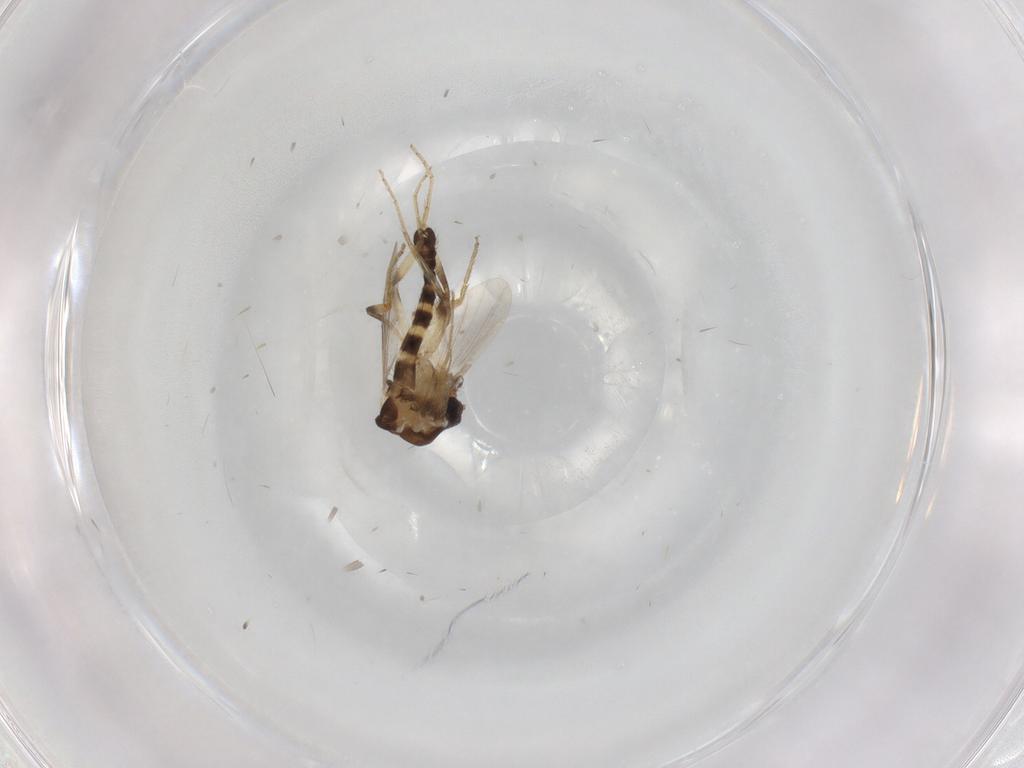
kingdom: Animalia
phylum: Arthropoda
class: Insecta
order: Diptera
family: Ceratopogonidae
